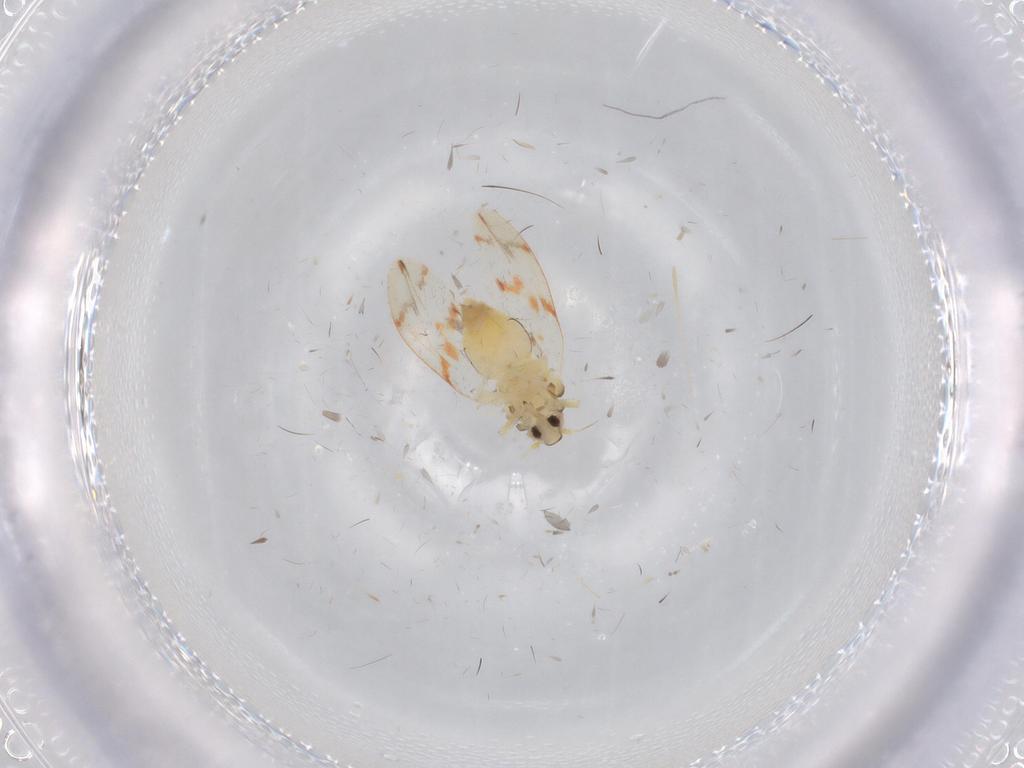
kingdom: Animalia
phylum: Arthropoda
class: Insecta
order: Hemiptera
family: Aleyrodidae
